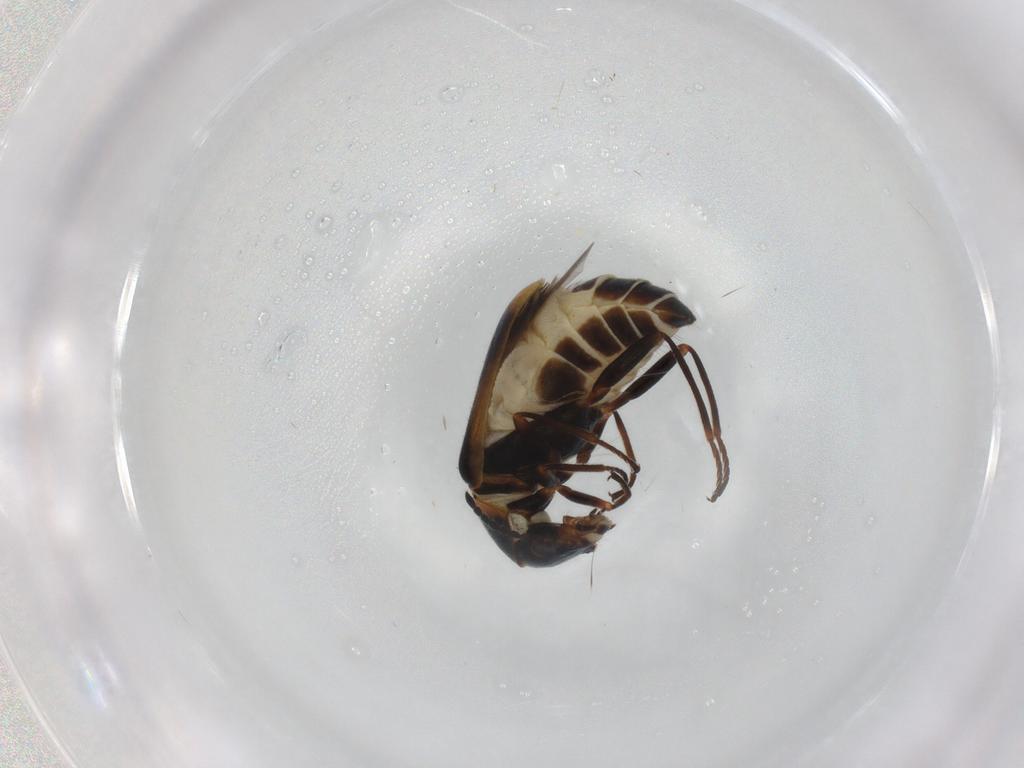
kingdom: Animalia
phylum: Arthropoda
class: Insecta
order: Coleoptera
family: Melyridae
